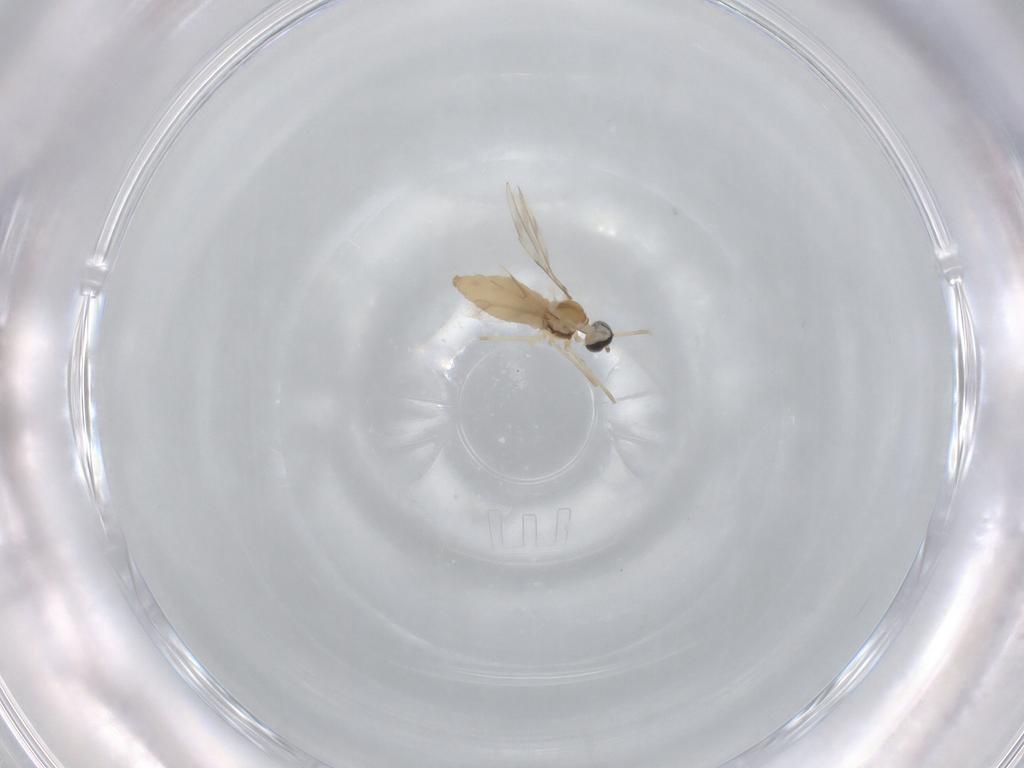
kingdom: Animalia
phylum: Arthropoda
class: Insecta
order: Diptera
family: Cecidomyiidae
